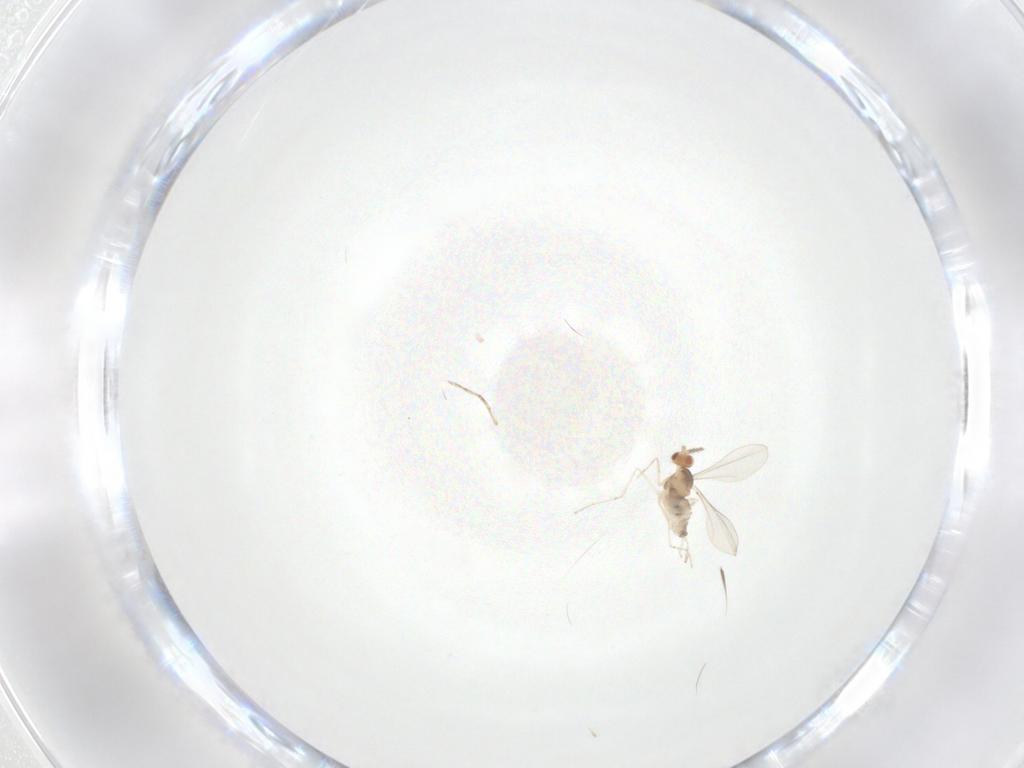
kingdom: Animalia
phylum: Arthropoda
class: Insecta
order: Diptera
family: Cecidomyiidae
